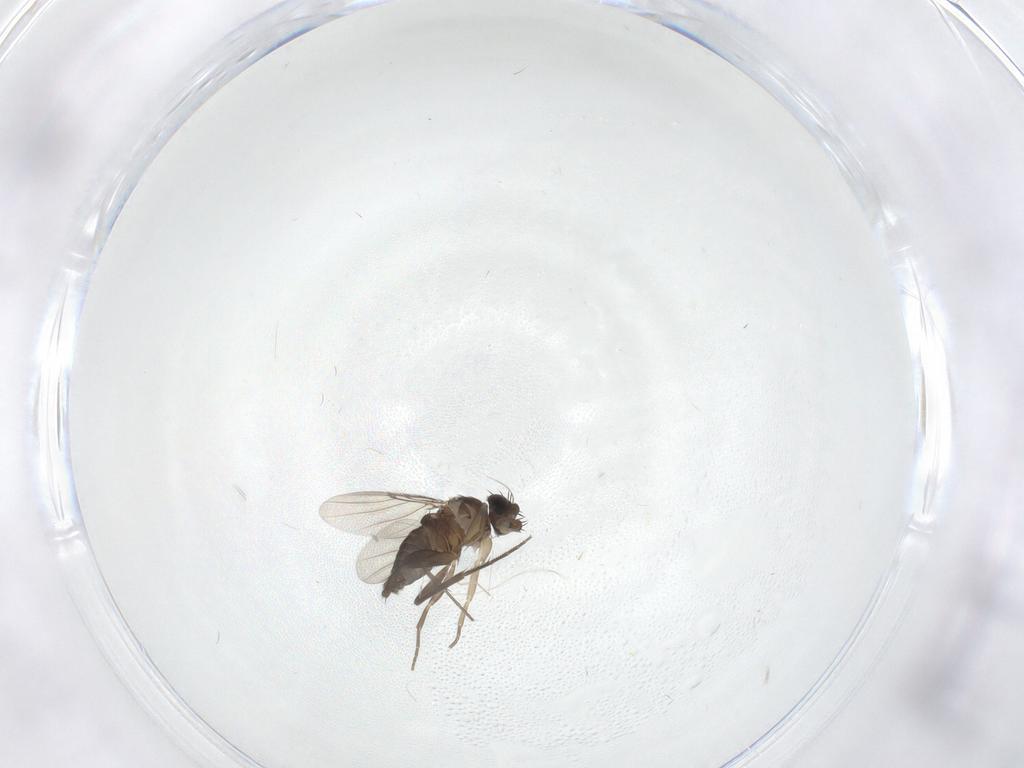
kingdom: Animalia
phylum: Arthropoda
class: Insecta
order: Diptera
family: Phoridae
